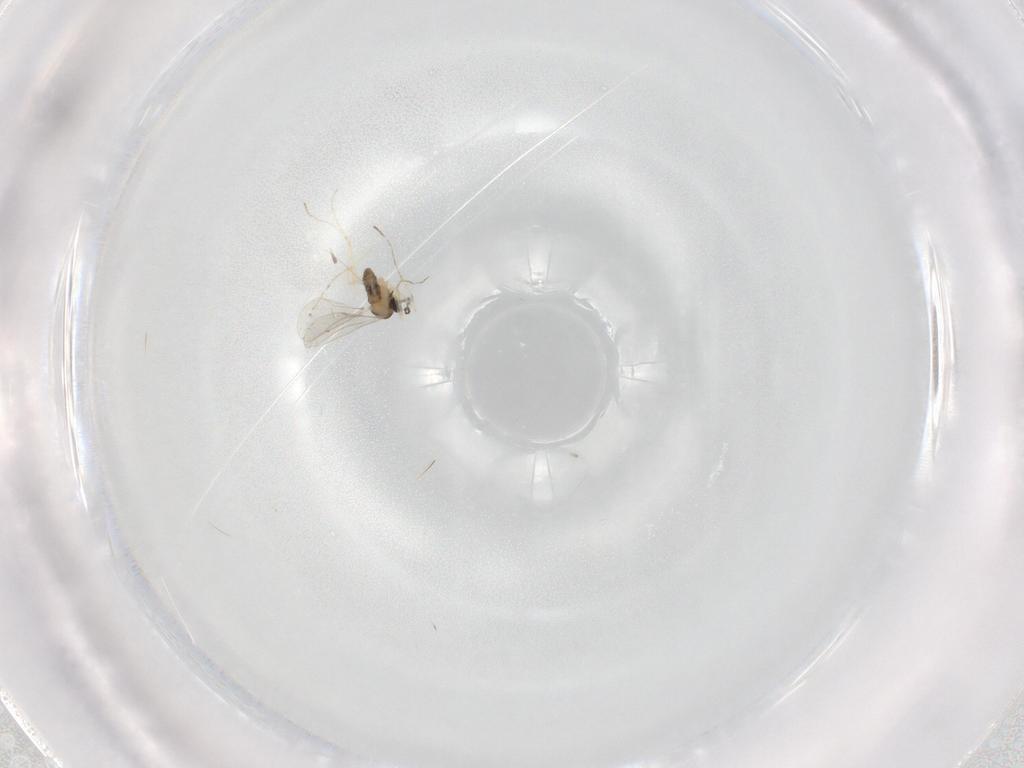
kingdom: Animalia
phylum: Arthropoda
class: Insecta
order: Diptera
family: Cecidomyiidae
